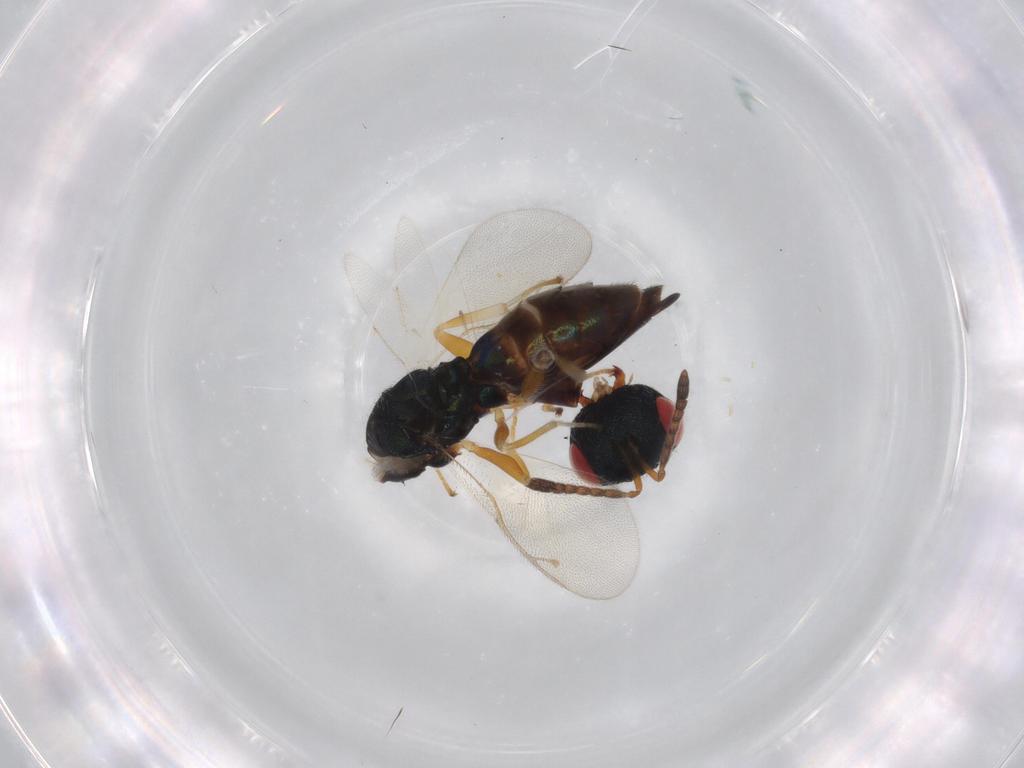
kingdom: Animalia
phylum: Arthropoda
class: Insecta
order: Hymenoptera
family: Pteromalidae
